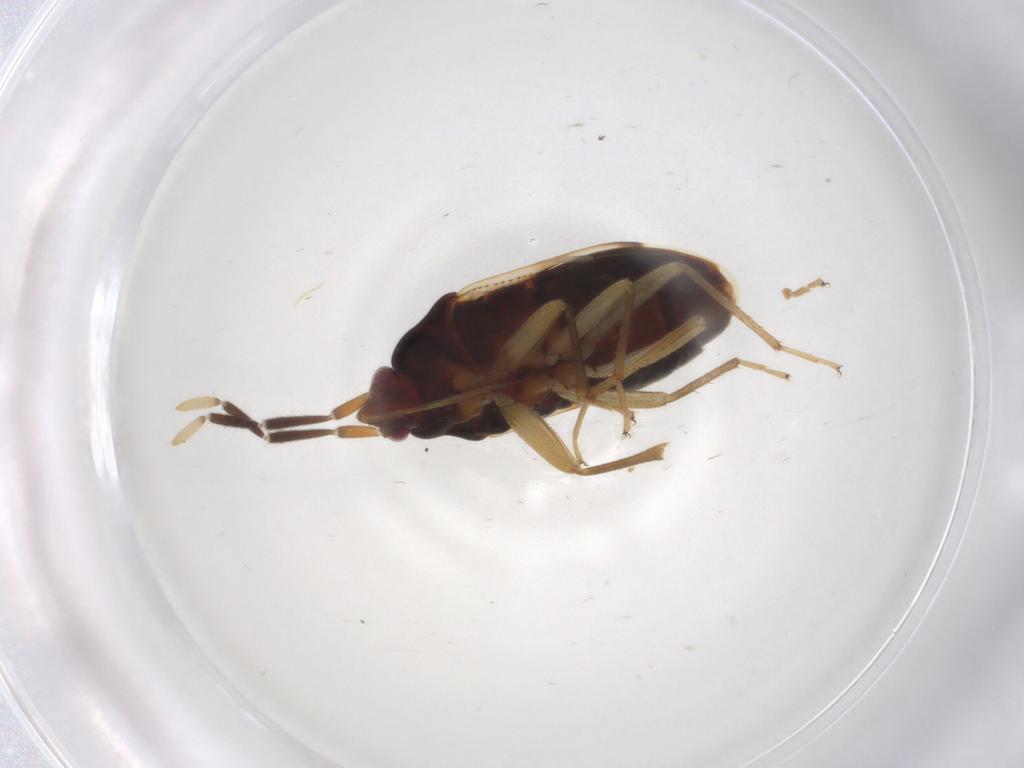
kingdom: Animalia
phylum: Arthropoda
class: Insecta
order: Hemiptera
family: Rhyparochromidae
